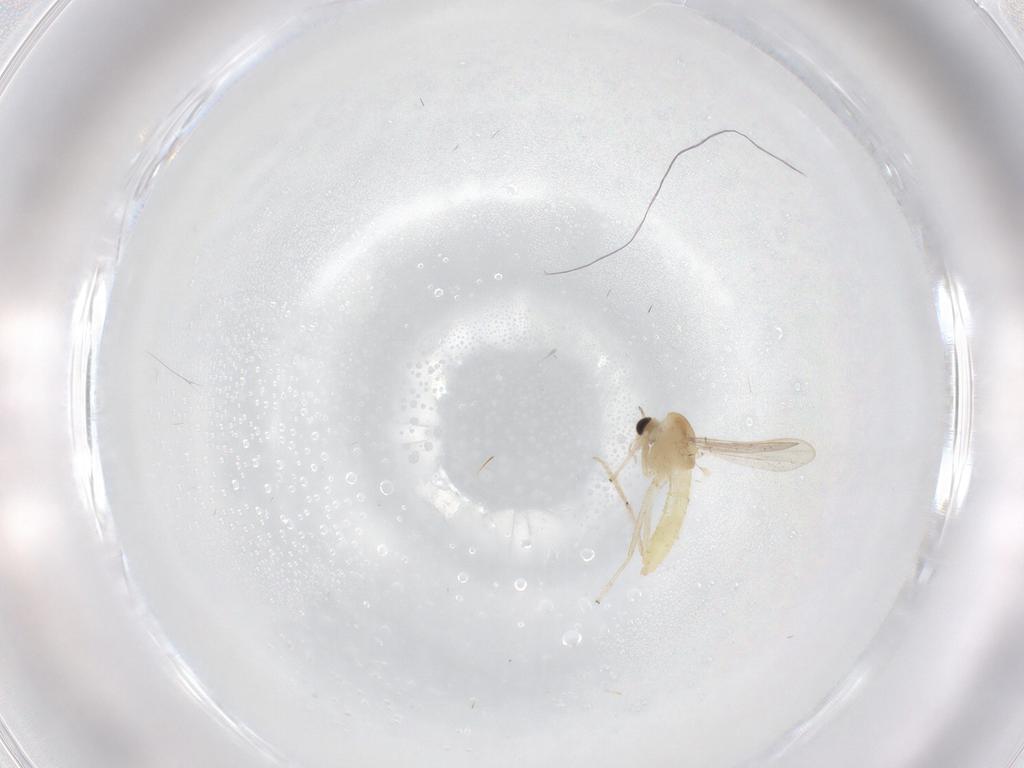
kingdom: Animalia
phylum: Arthropoda
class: Insecta
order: Diptera
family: Chironomidae
